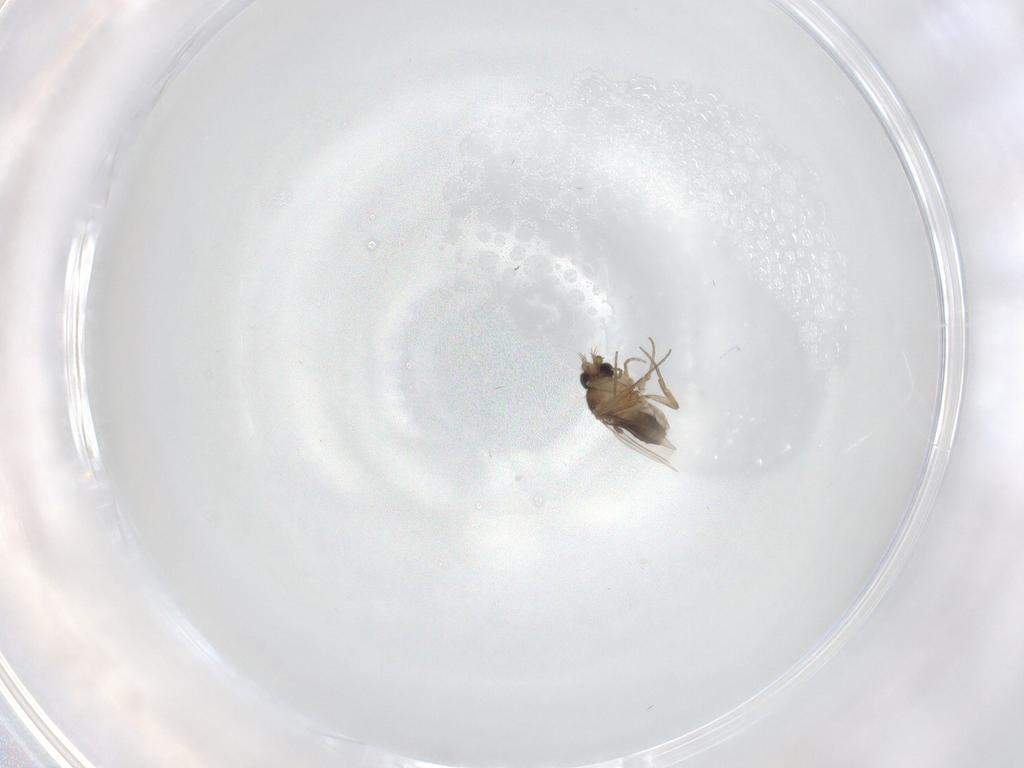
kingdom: Animalia
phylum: Arthropoda
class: Insecta
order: Diptera
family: Phoridae
